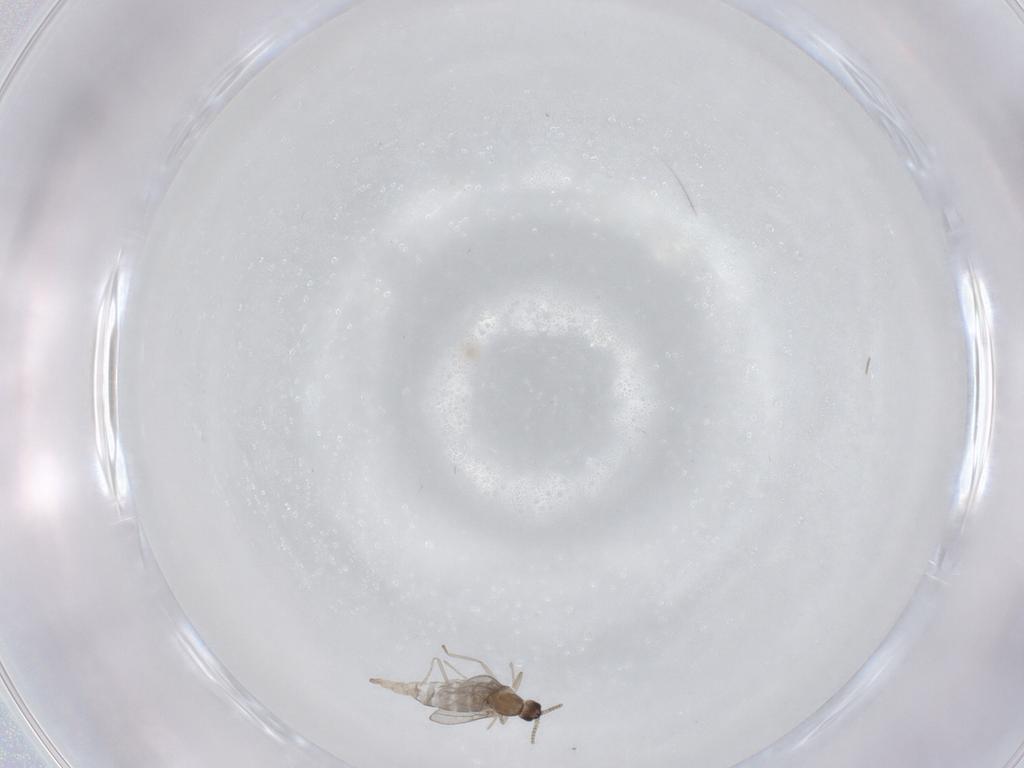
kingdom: Animalia
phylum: Arthropoda
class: Insecta
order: Diptera
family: Cecidomyiidae
